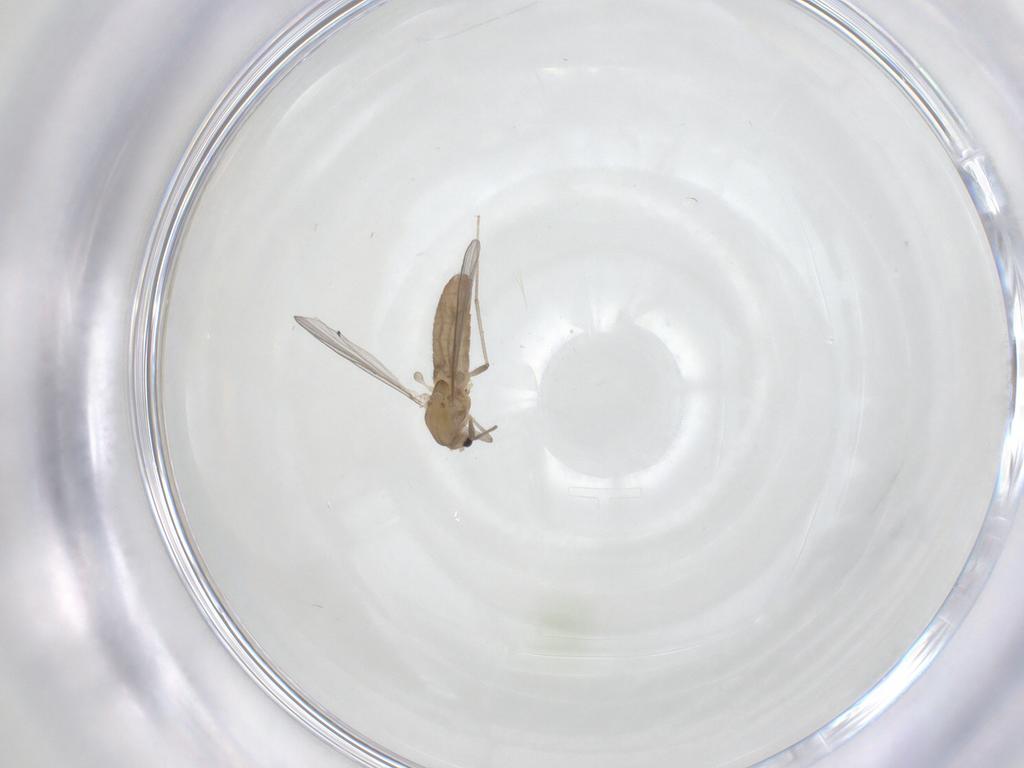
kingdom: Animalia
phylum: Arthropoda
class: Insecta
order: Diptera
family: Chironomidae
